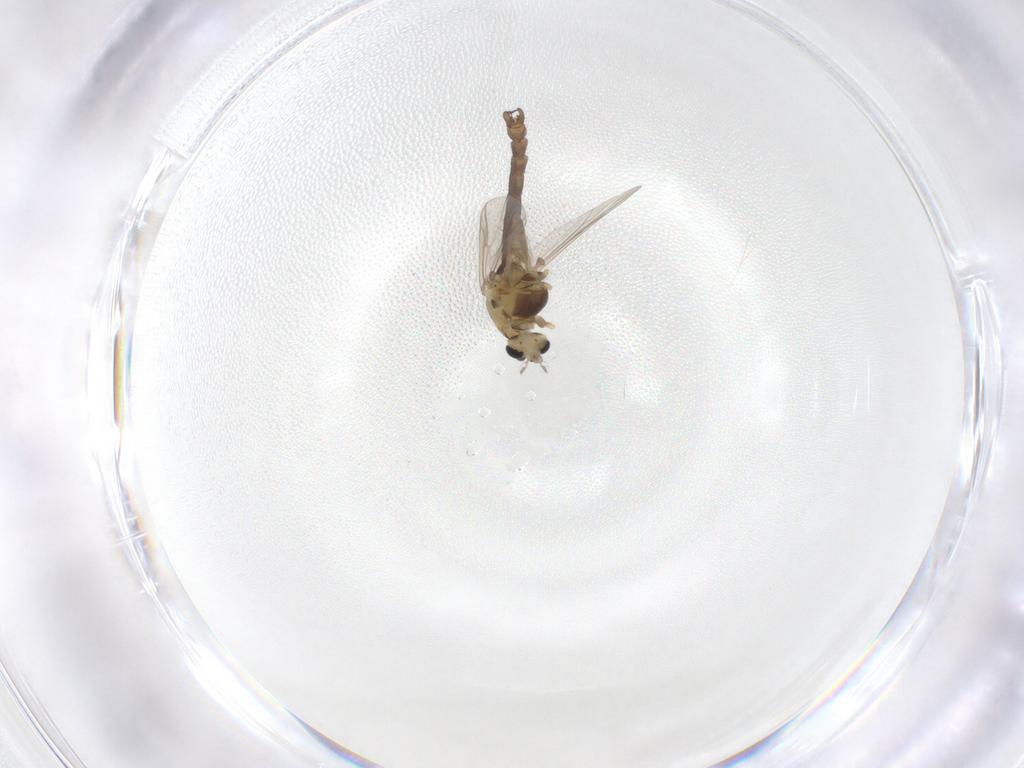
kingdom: Animalia
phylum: Arthropoda
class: Insecta
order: Diptera
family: Chironomidae
